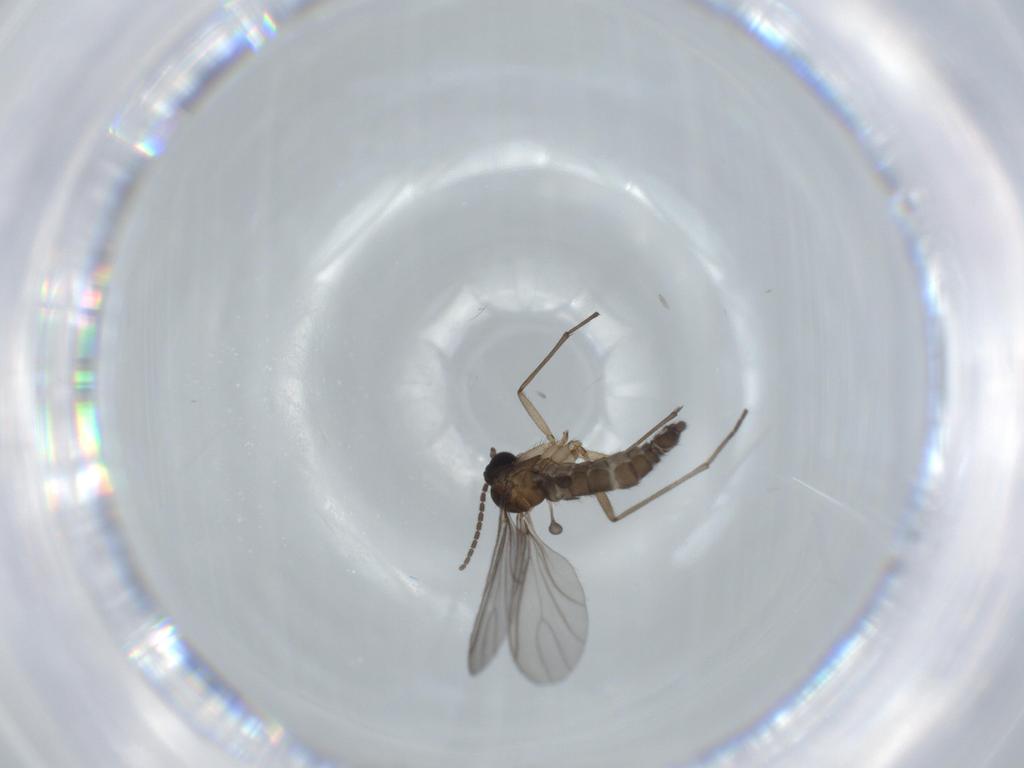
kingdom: Animalia
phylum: Arthropoda
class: Insecta
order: Diptera
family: Sciaridae
